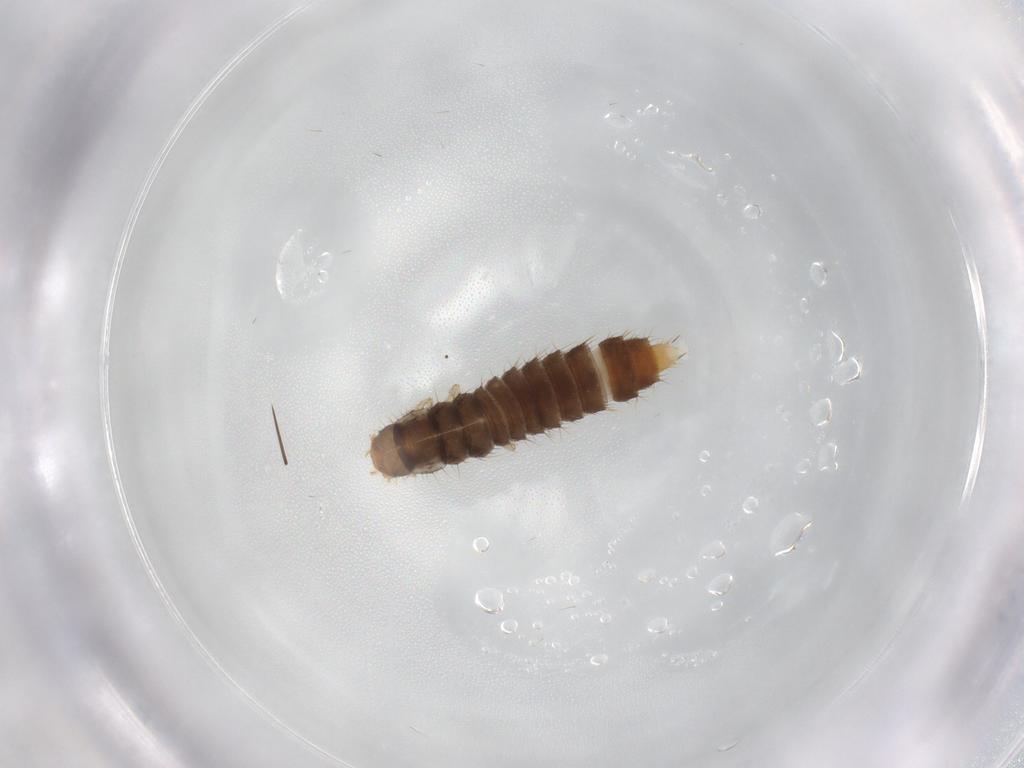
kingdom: Animalia
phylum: Arthropoda
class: Insecta
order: Coleoptera
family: Staphylinidae
